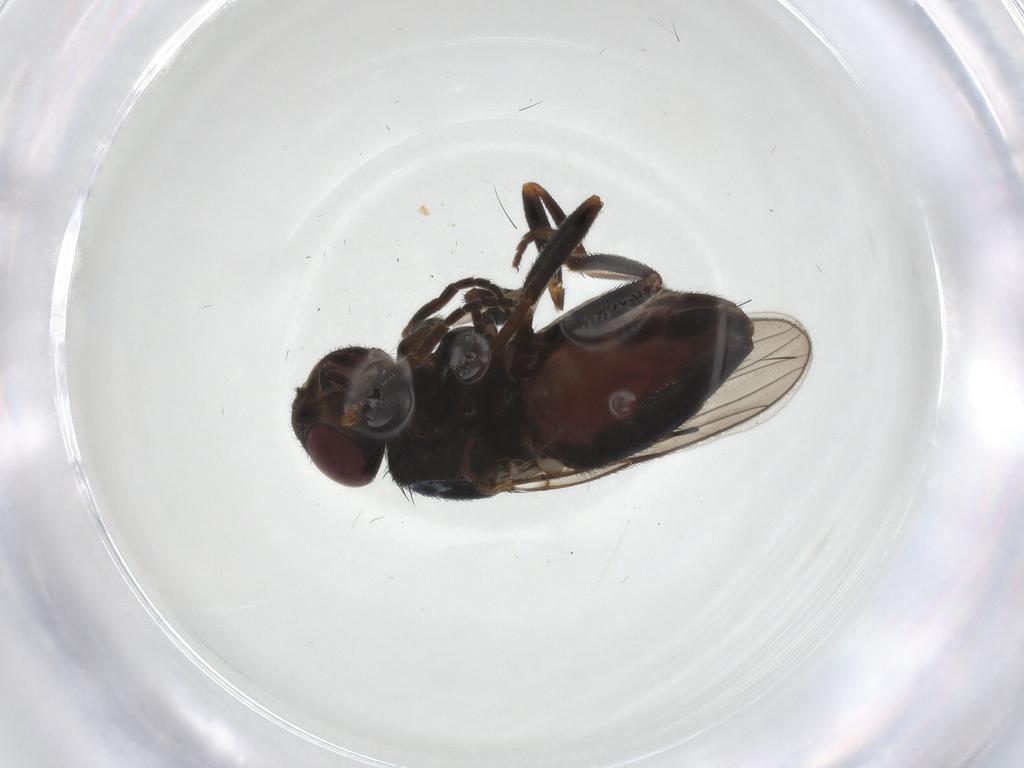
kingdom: Animalia
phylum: Arthropoda
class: Insecta
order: Diptera
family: Chloropidae
